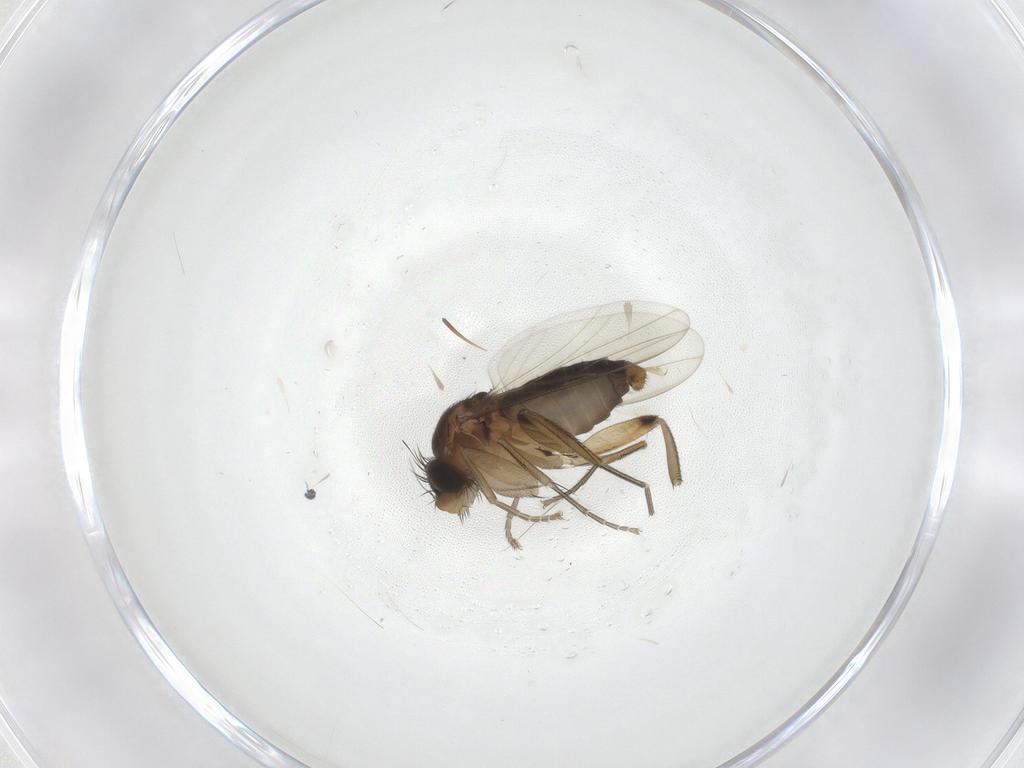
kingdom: Animalia
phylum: Arthropoda
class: Insecta
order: Diptera
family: Phoridae
